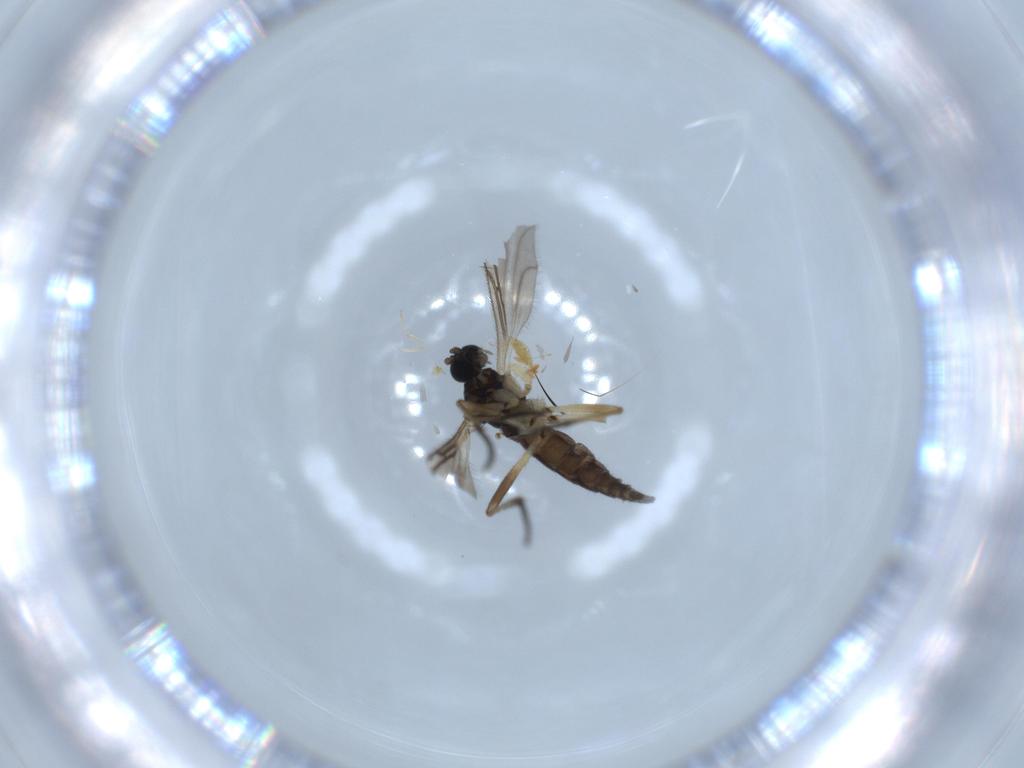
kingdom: Animalia
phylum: Arthropoda
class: Insecta
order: Diptera
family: Sciaridae
